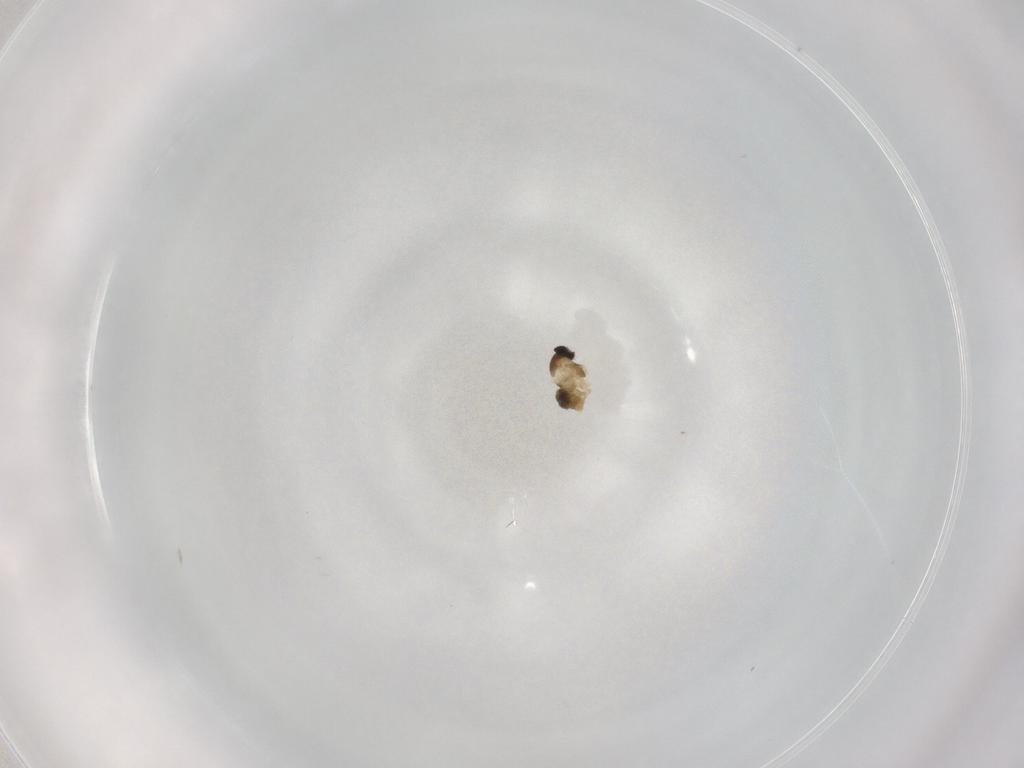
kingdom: Animalia
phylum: Arthropoda
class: Insecta
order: Diptera
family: Cecidomyiidae
